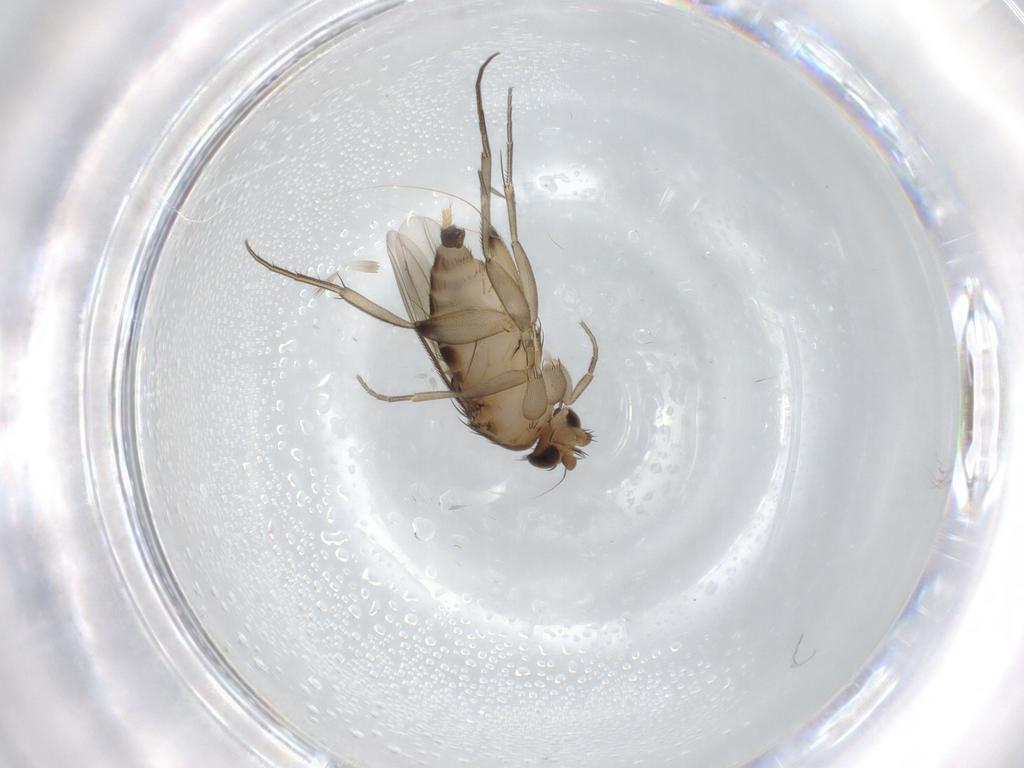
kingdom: Animalia
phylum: Arthropoda
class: Insecta
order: Diptera
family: Phoridae
